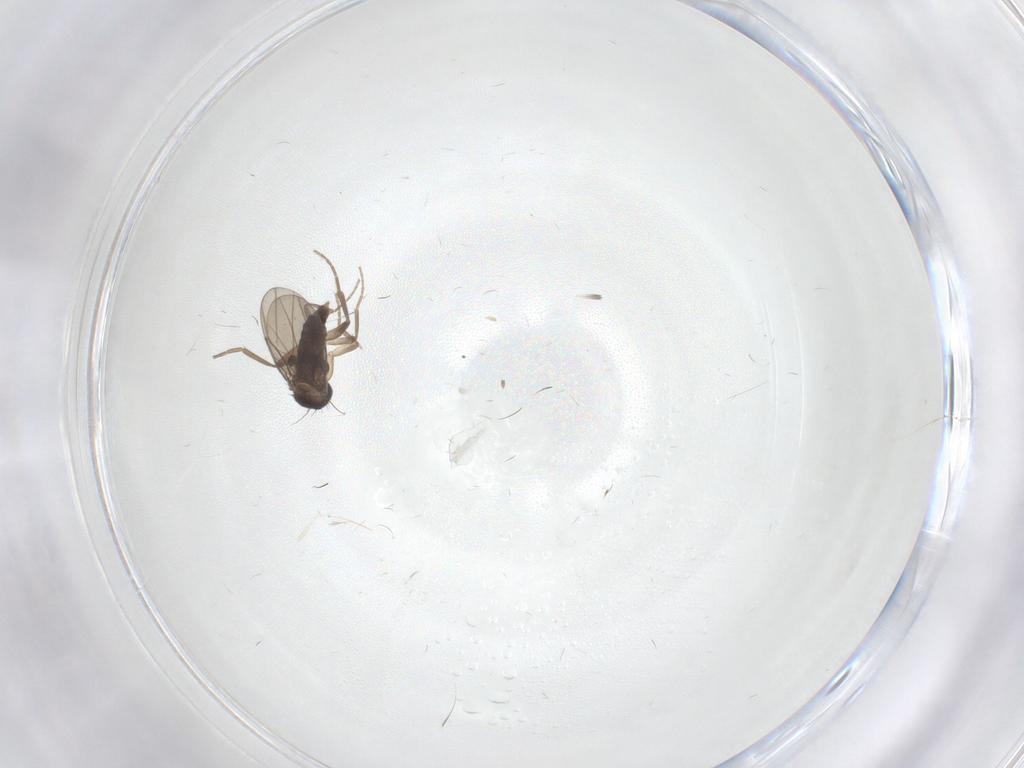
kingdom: Animalia
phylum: Arthropoda
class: Insecta
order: Diptera
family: Phoridae
